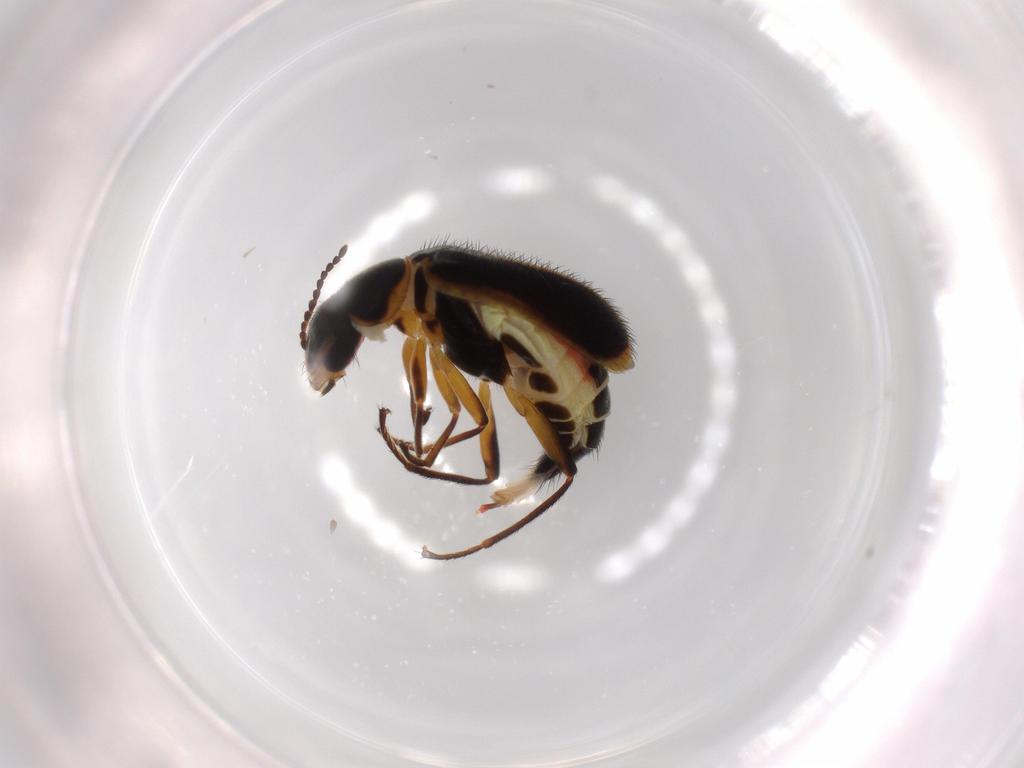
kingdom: Animalia
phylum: Arthropoda
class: Insecta
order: Coleoptera
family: Melyridae
